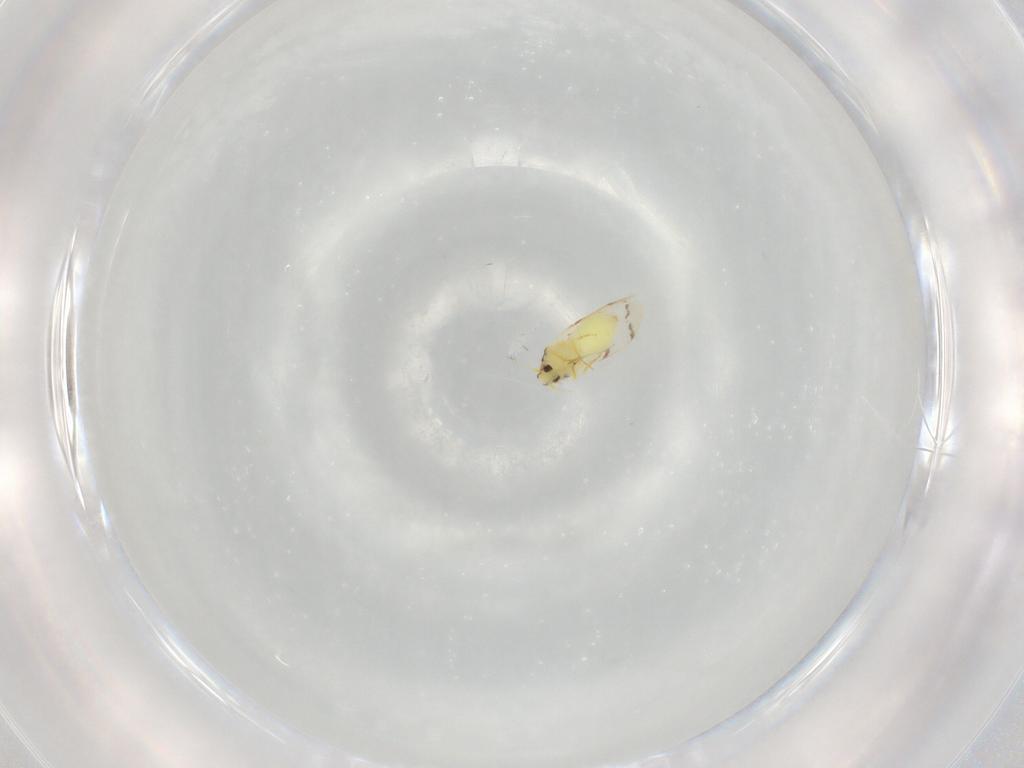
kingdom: Animalia
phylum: Arthropoda
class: Insecta
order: Hemiptera
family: Aleyrodidae
